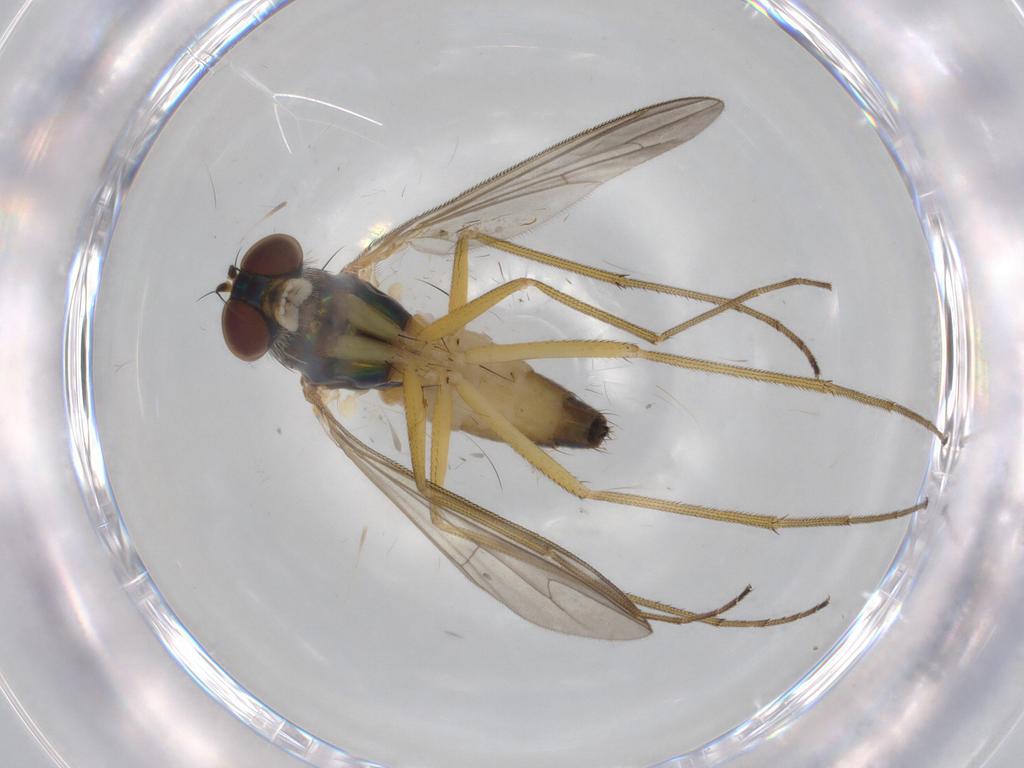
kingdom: Animalia
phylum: Arthropoda
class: Insecta
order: Diptera
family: Dolichopodidae
